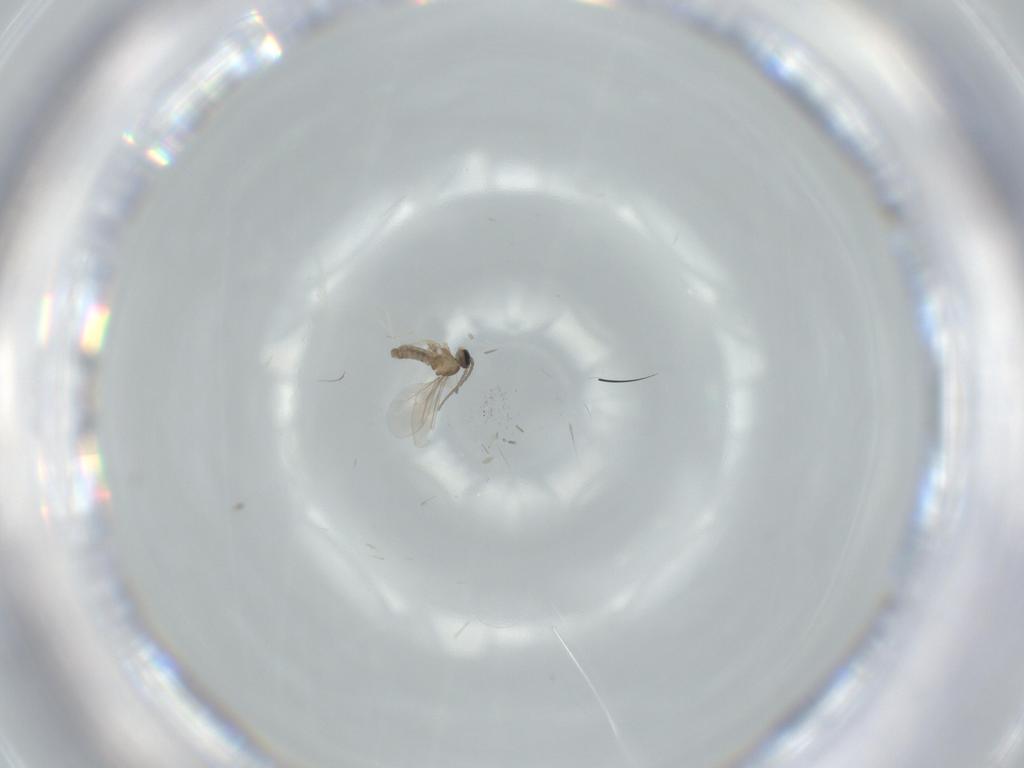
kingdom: Animalia
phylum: Arthropoda
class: Insecta
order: Diptera
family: Cecidomyiidae
